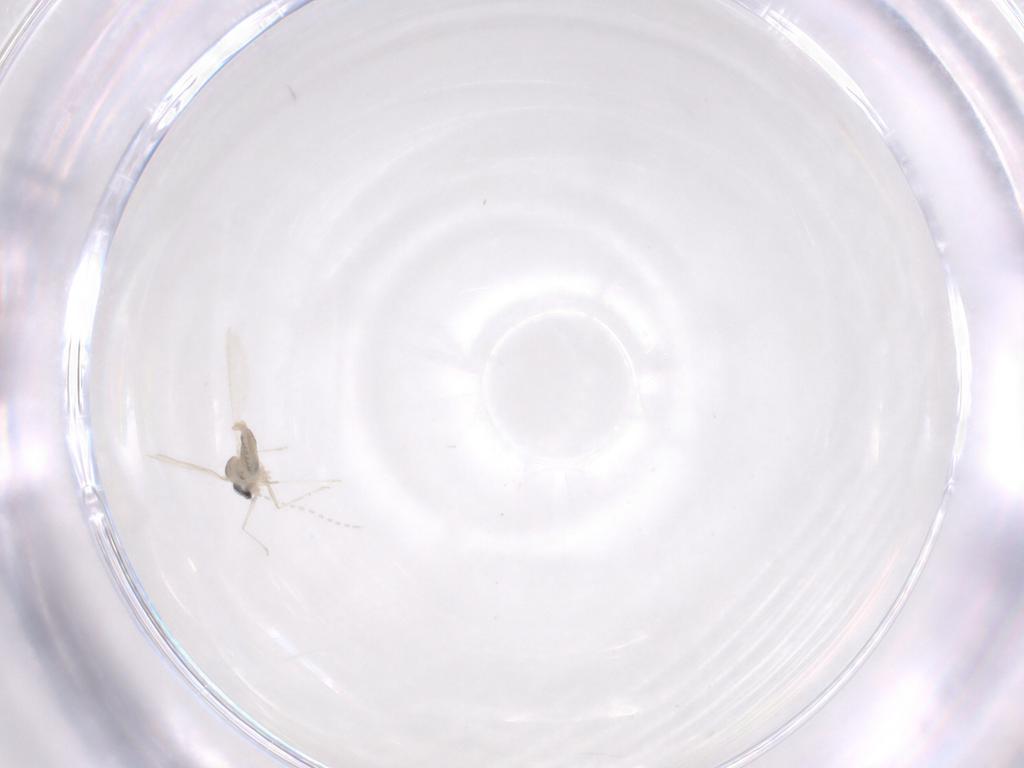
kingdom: Animalia
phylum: Arthropoda
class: Insecta
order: Diptera
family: Cecidomyiidae
